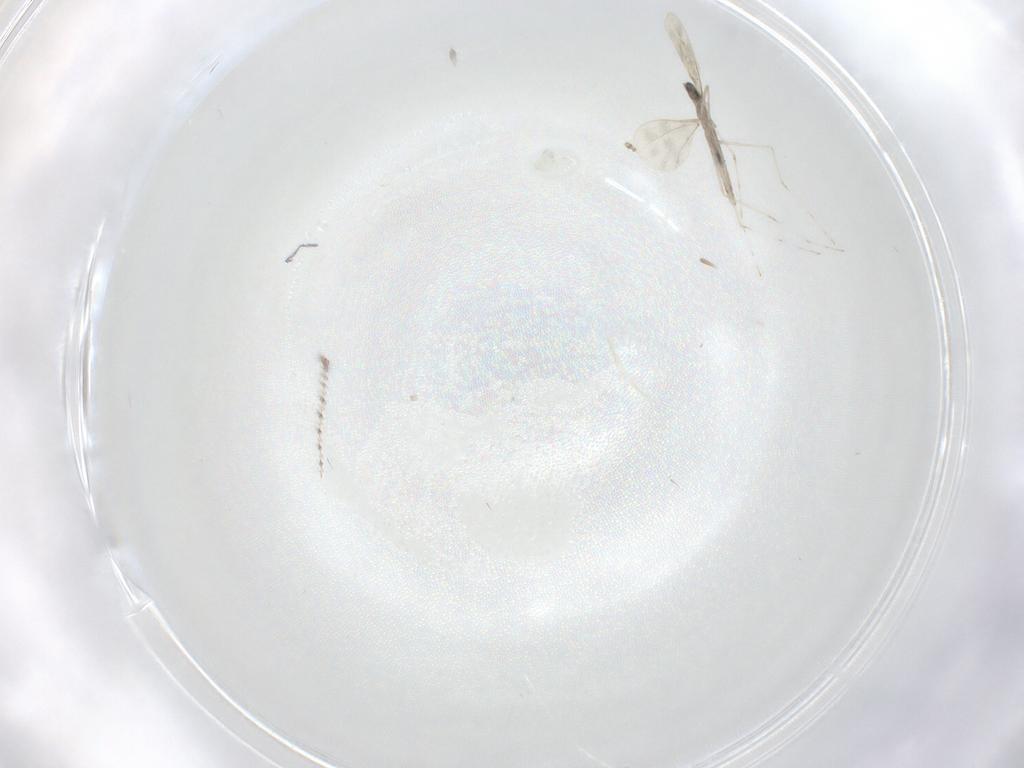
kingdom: Animalia
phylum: Arthropoda
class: Insecta
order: Diptera
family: Cecidomyiidae
